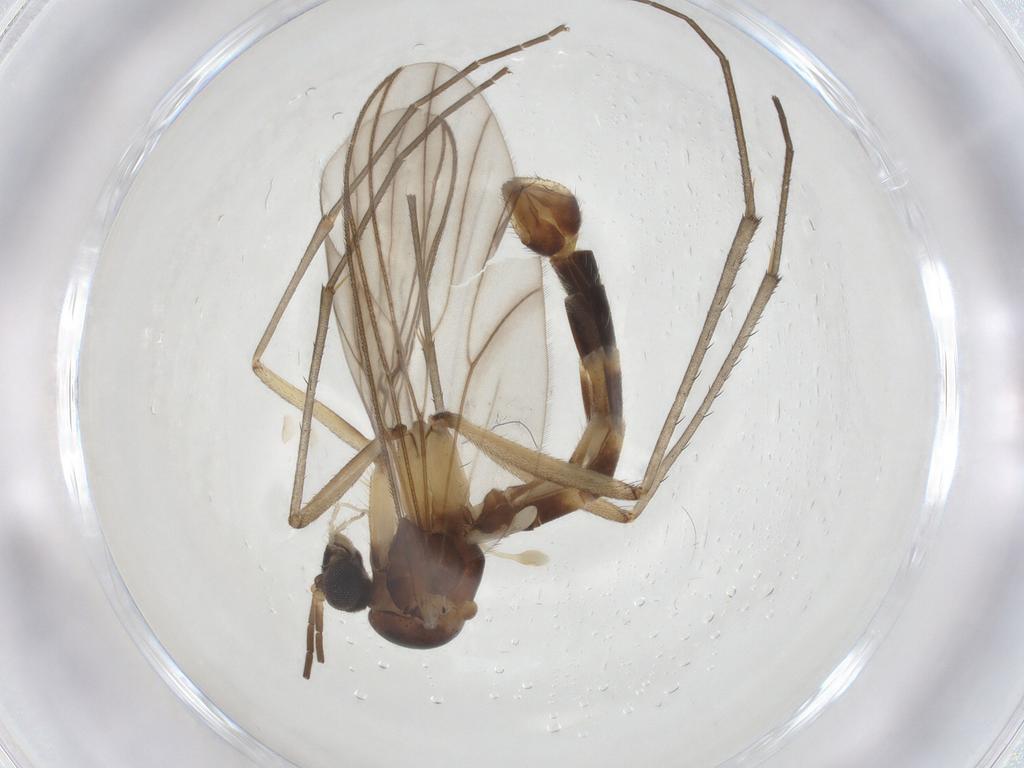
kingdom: Animalia
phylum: Arthropoda
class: Insecta
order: Diptera
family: Mycetophilidae
